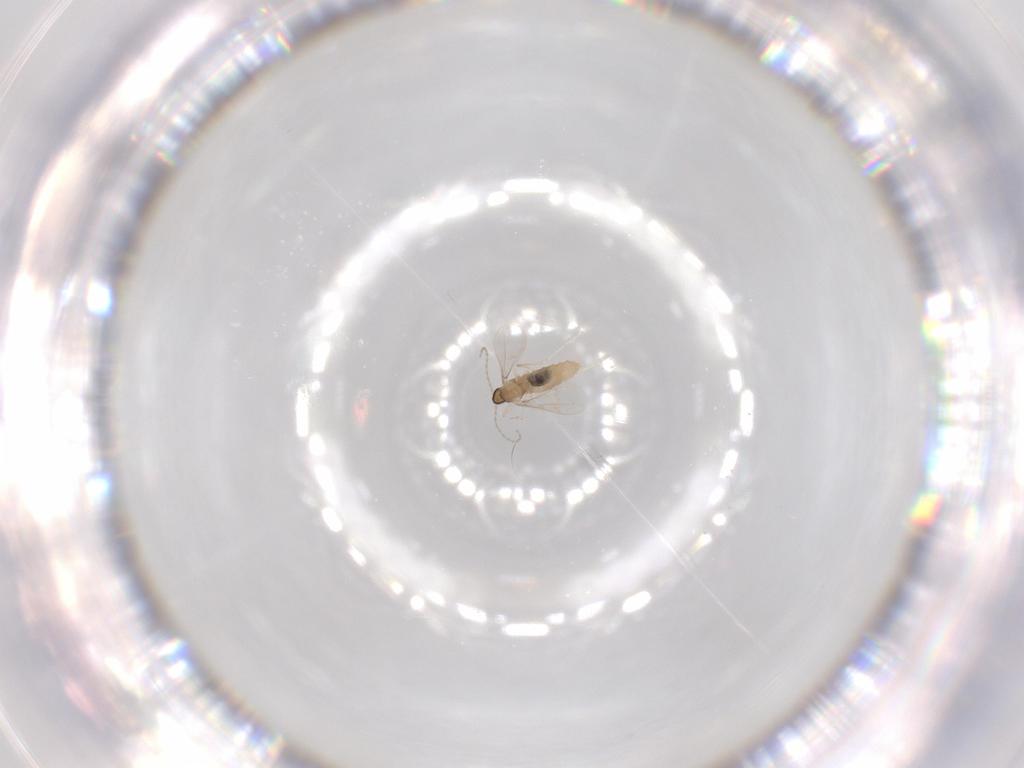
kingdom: Animalia
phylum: Arthropoda
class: Insecta
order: Diptera
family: Cecidomyiidae
